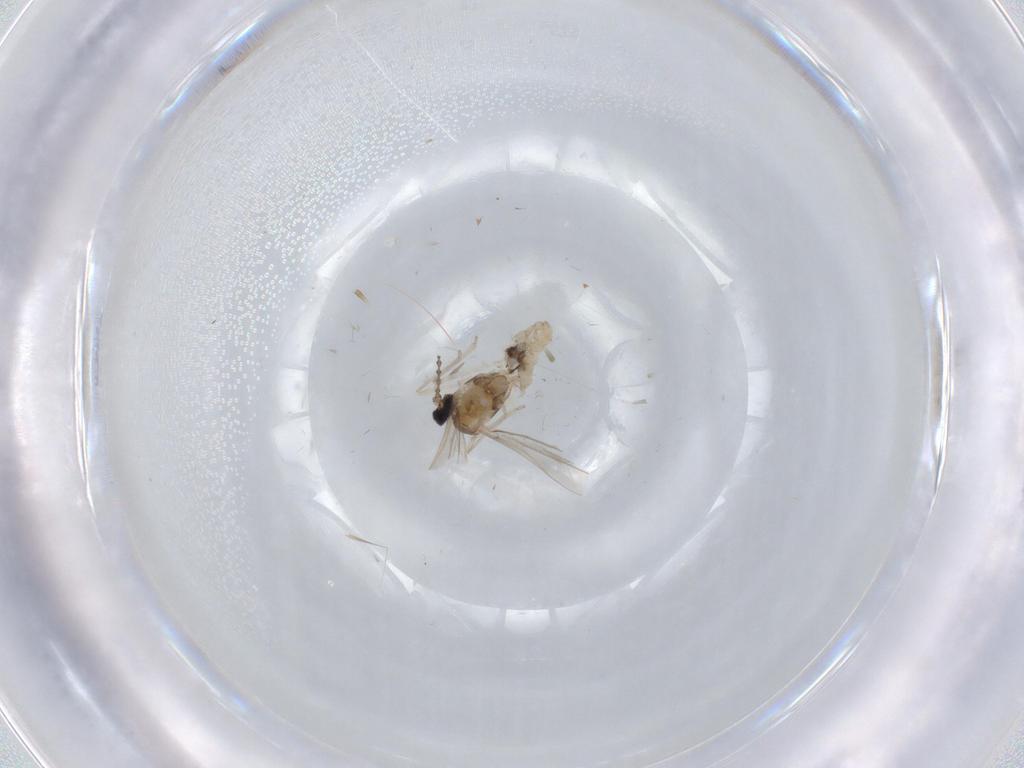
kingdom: Animalia
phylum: Arthropoda
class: Insecta
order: Diptera
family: Cecidomyiidae
